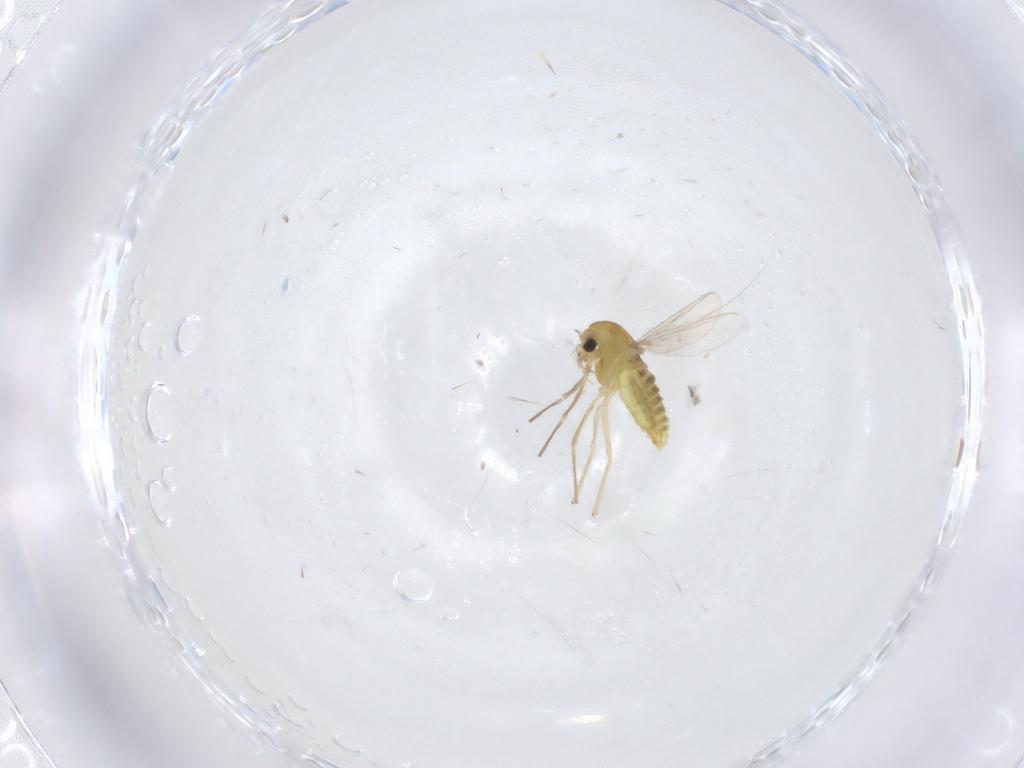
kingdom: Animalia
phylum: Arthropoda
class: Insecta
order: Diptera
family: Chironomidae
